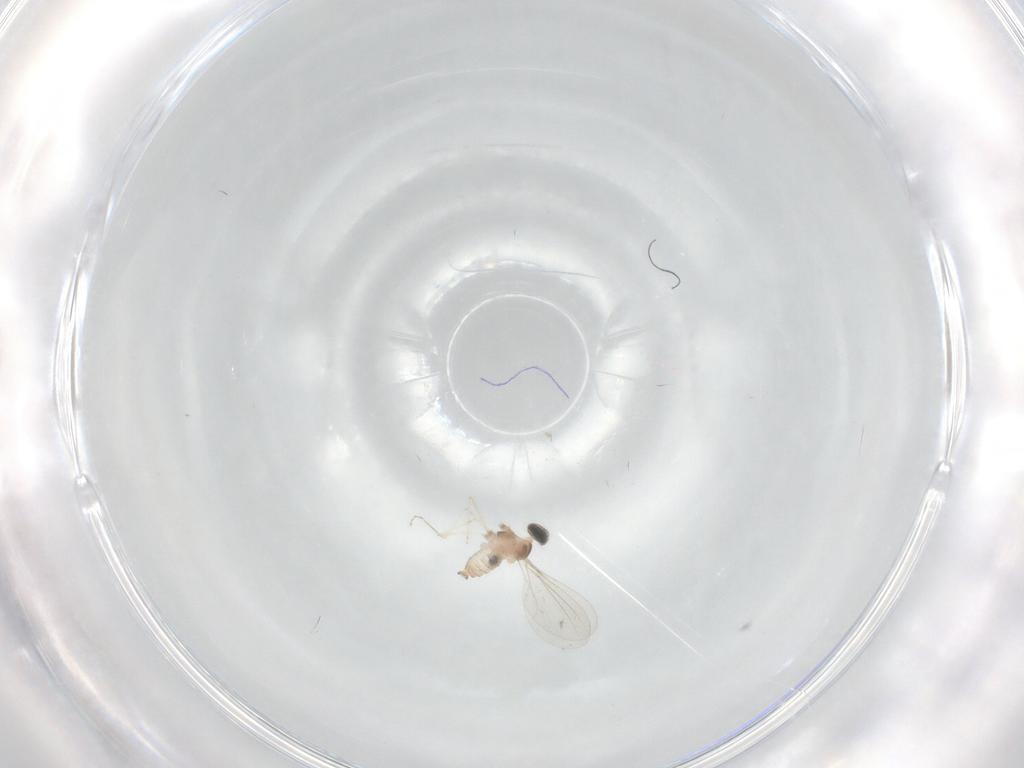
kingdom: Animalia
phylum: Arthropoda
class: Insecta
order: Diptera
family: Cecidomyiidae
